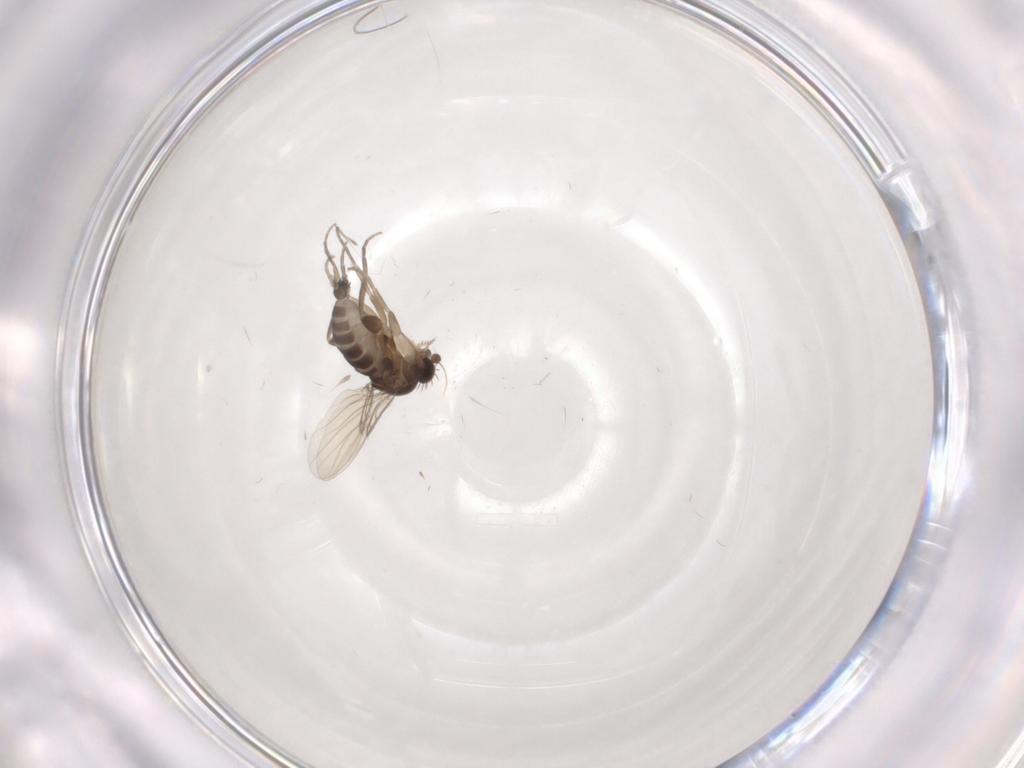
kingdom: Animalia
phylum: Arthropoda
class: Insecta
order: Diptera
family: Phoridae
